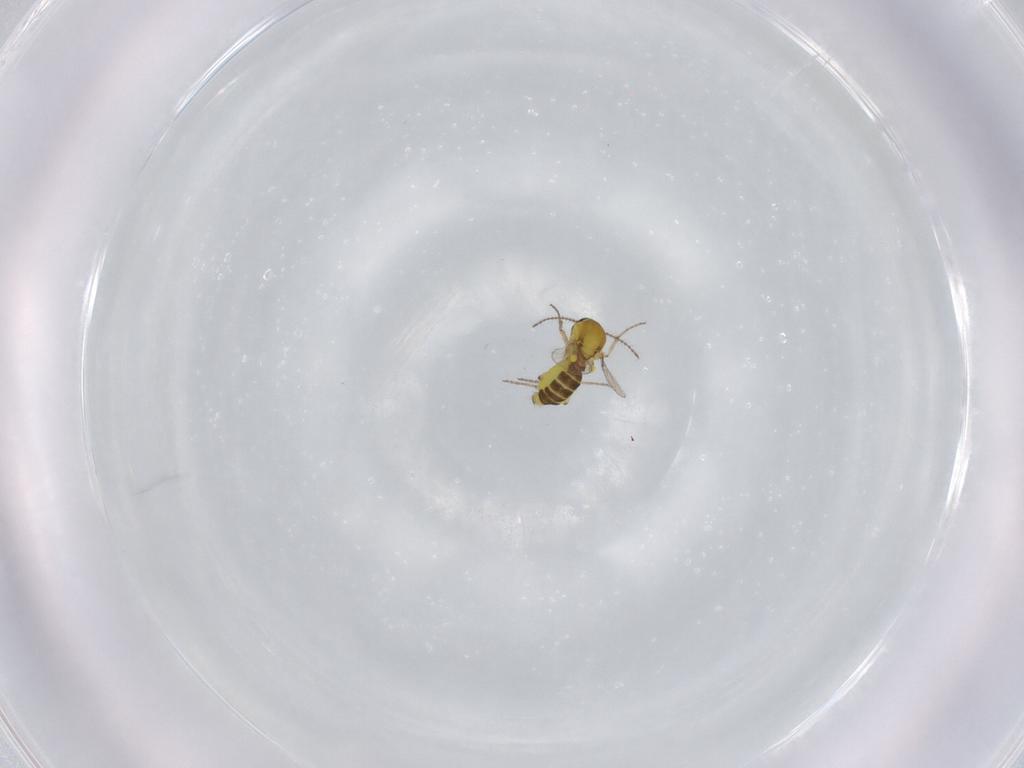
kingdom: Animalia
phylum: Arthropoda
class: Insecta
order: Diptera
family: Ceratopogonidae
